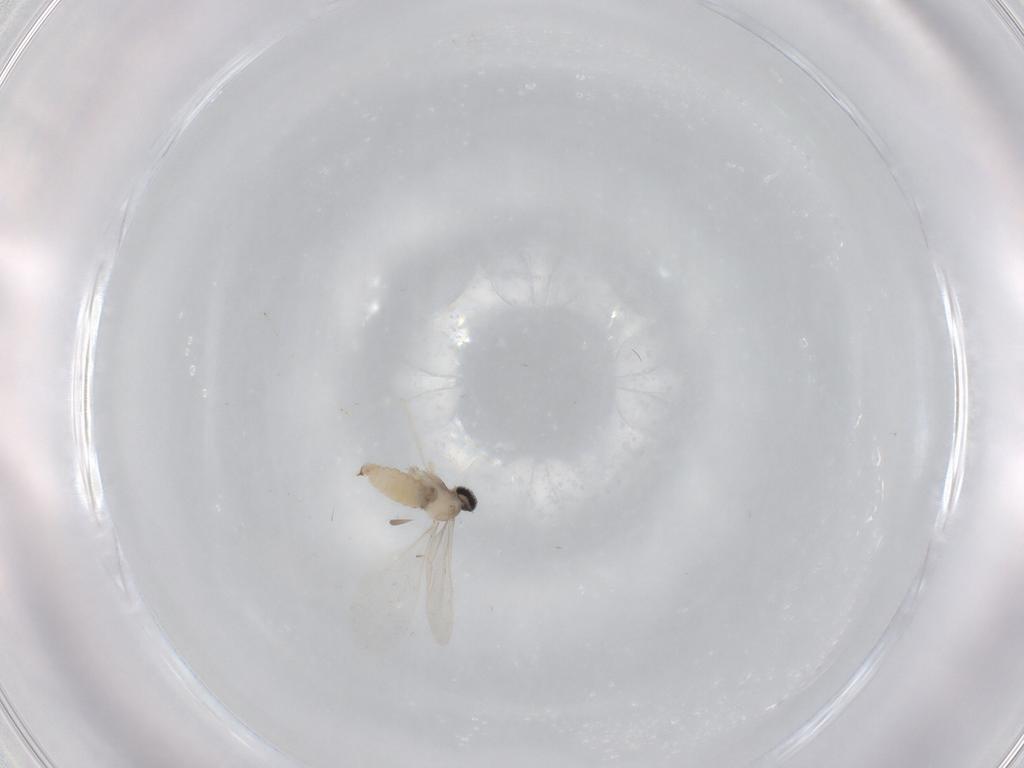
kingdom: Animalia
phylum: Arthropoda
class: Insecta
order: Diptera
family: Cecidomyiidae
